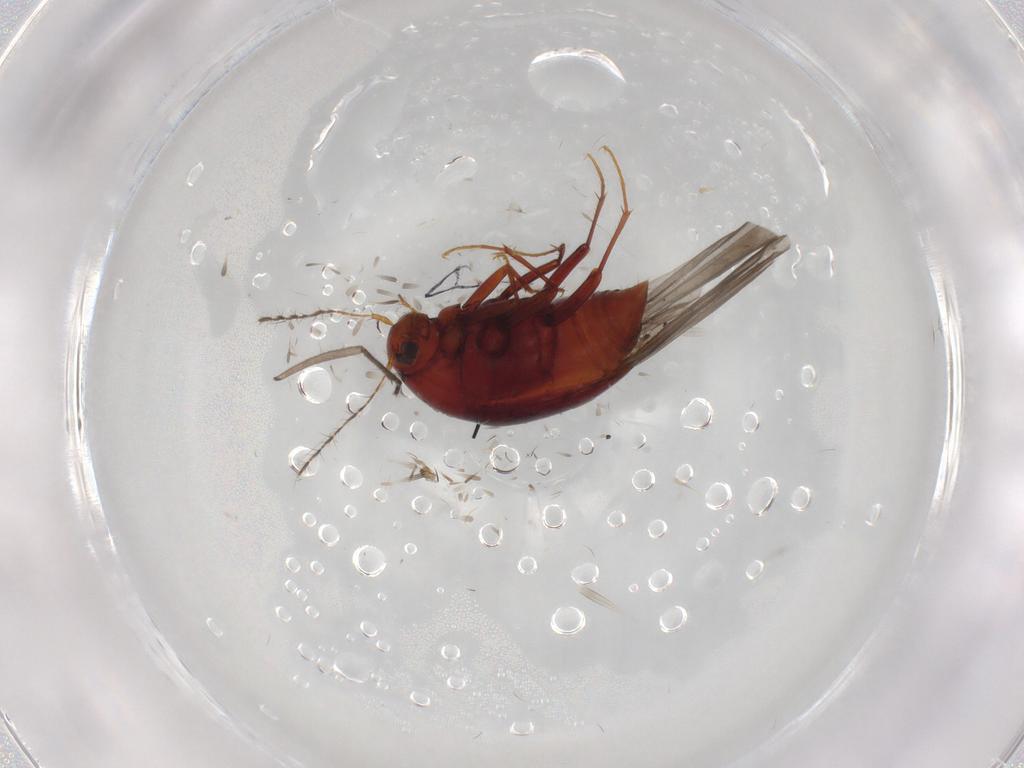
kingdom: Animalia
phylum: Arthropoda
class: Insecta
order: Coleoptera
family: Staphylinidae
